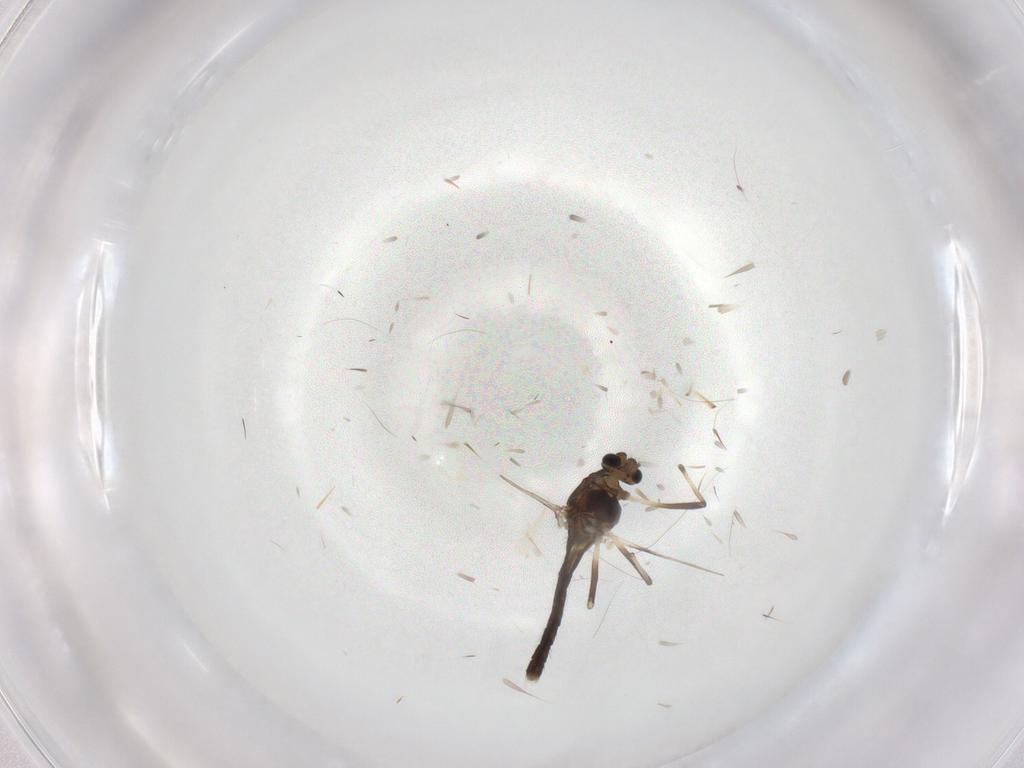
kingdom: Animalia
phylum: Arthropoda
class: Insecta
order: Diptera
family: Chironomidae
